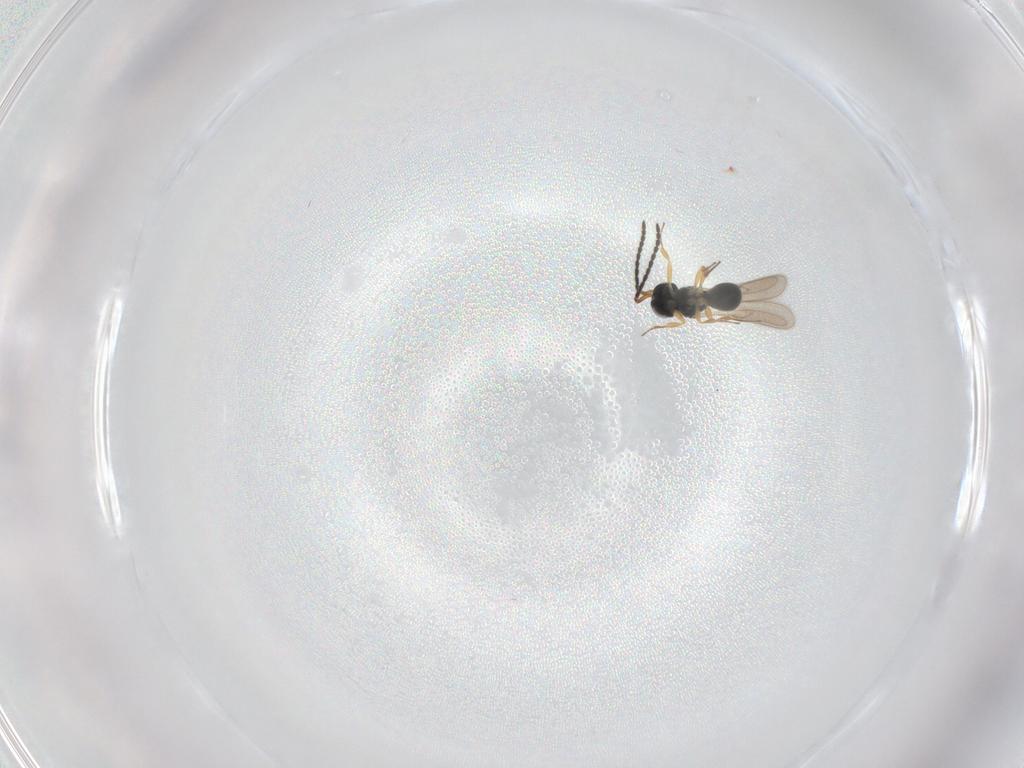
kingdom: Animalia
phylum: Arthropoda
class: Insecta
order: Hymenoptera
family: Scelionidae
